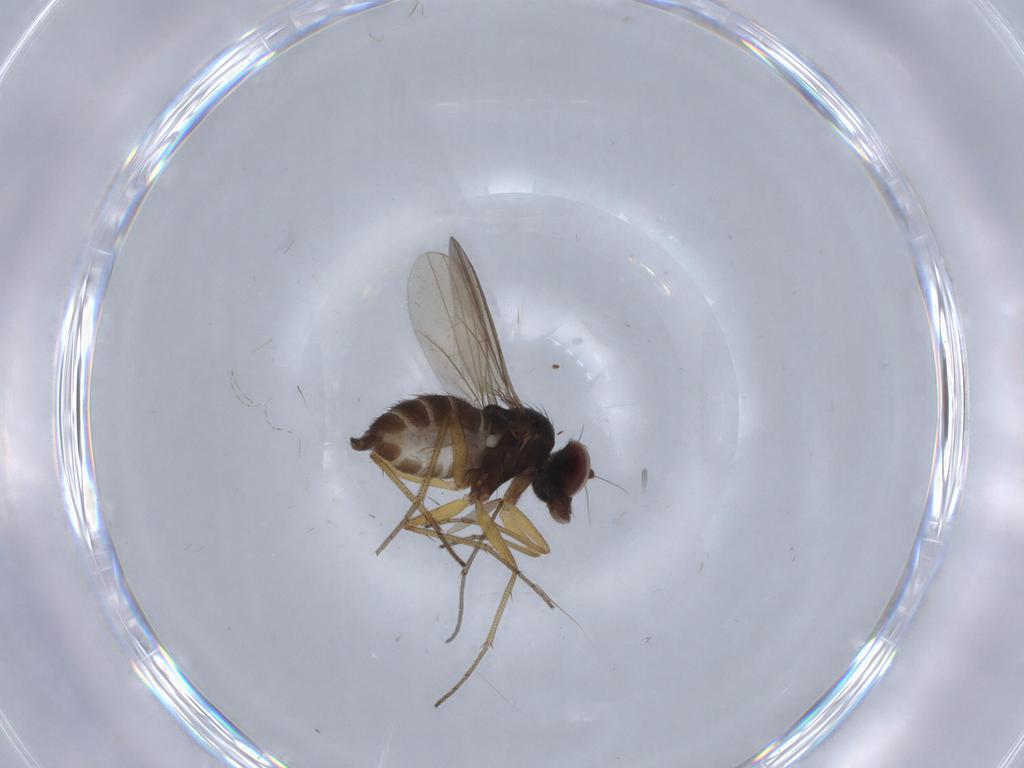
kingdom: Animalia
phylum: Arthropoda
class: Insecta
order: Diptera
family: Dolichopodidae
